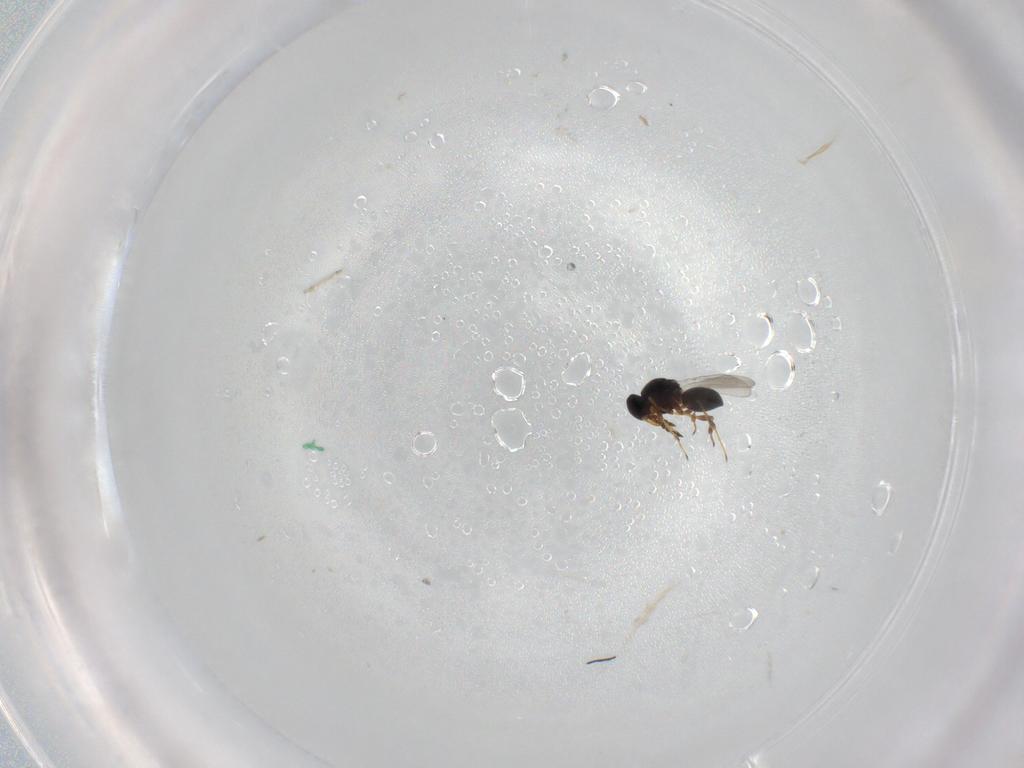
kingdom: Animalia
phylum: Arthropoda
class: Insecta
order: Hymenoptera
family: Platygastridae
